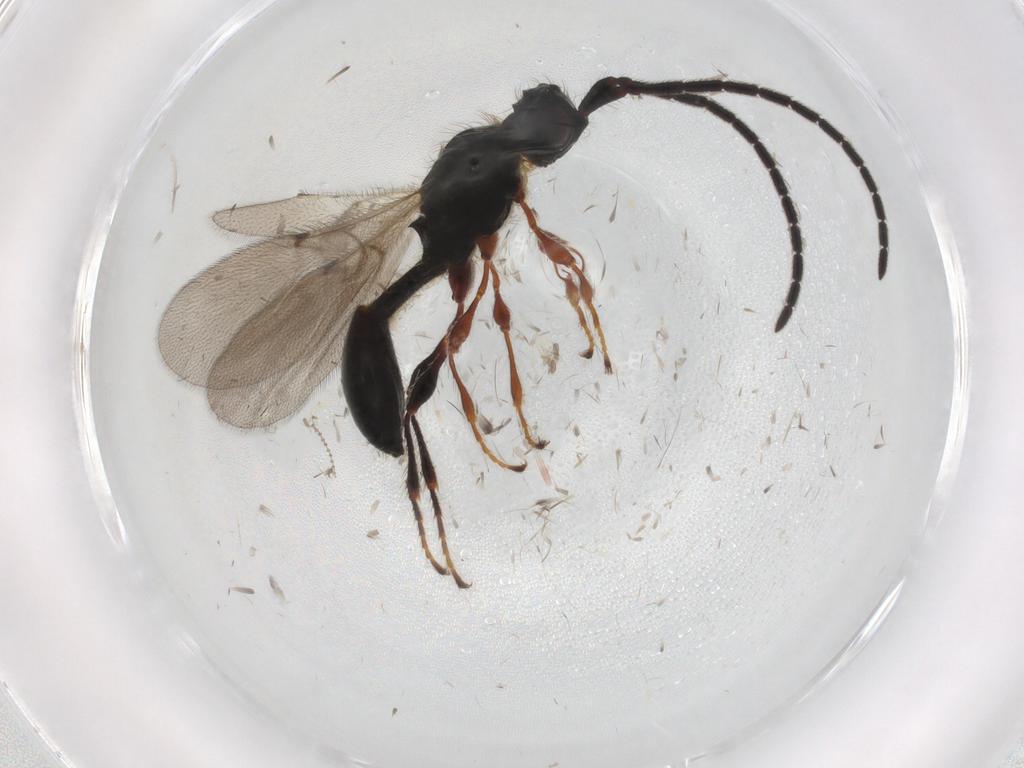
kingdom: Animalia
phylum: Arthropoda
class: Insecta
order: Hymenoptera
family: Diapriidae
